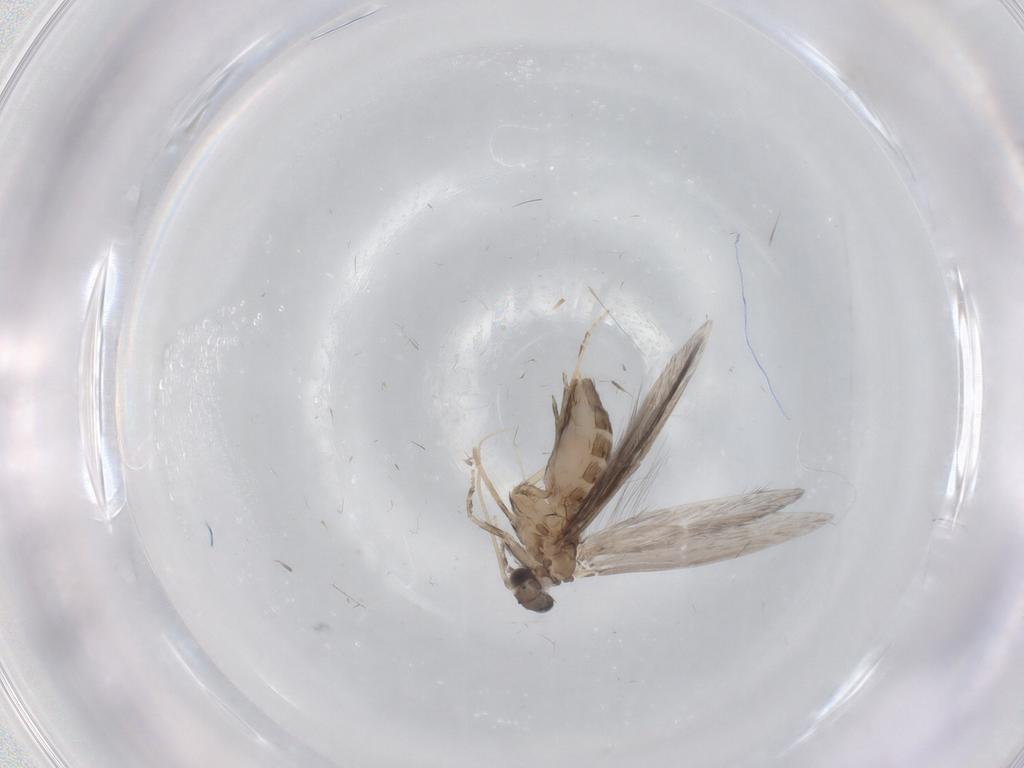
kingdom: Animalia
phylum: Arthropoda
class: Insecta
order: Trichoptera
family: Hydroptilidae
